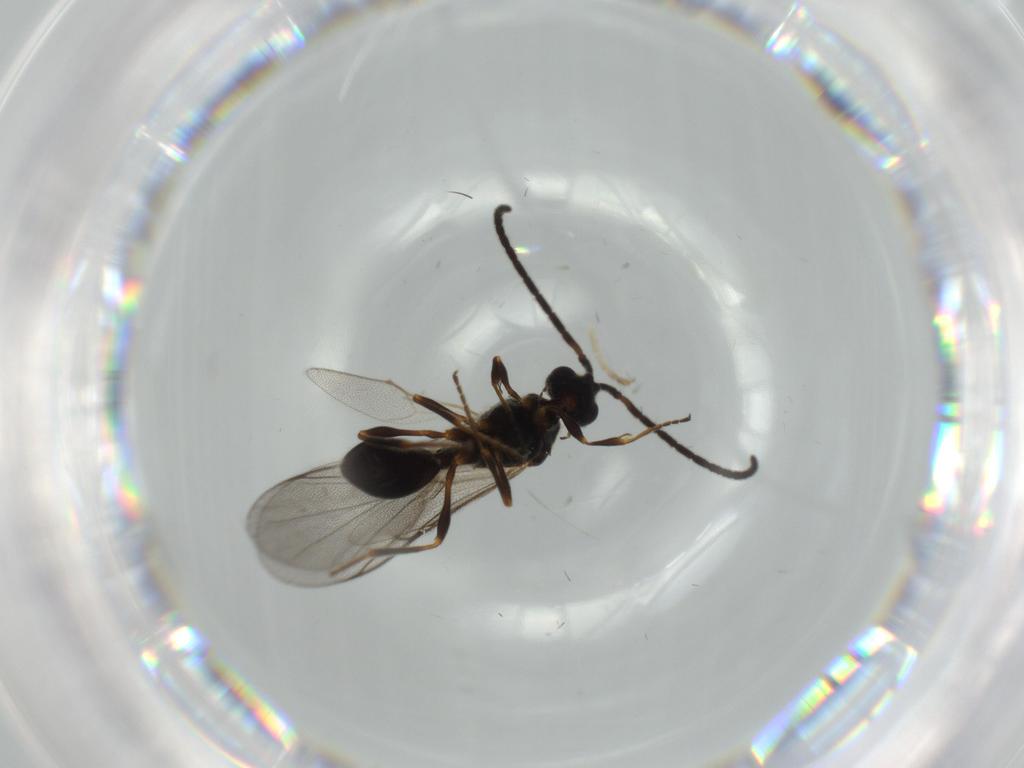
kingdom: Animalia
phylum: Arthropoda
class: Insecta
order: Hymenoptera
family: Diapriidae
